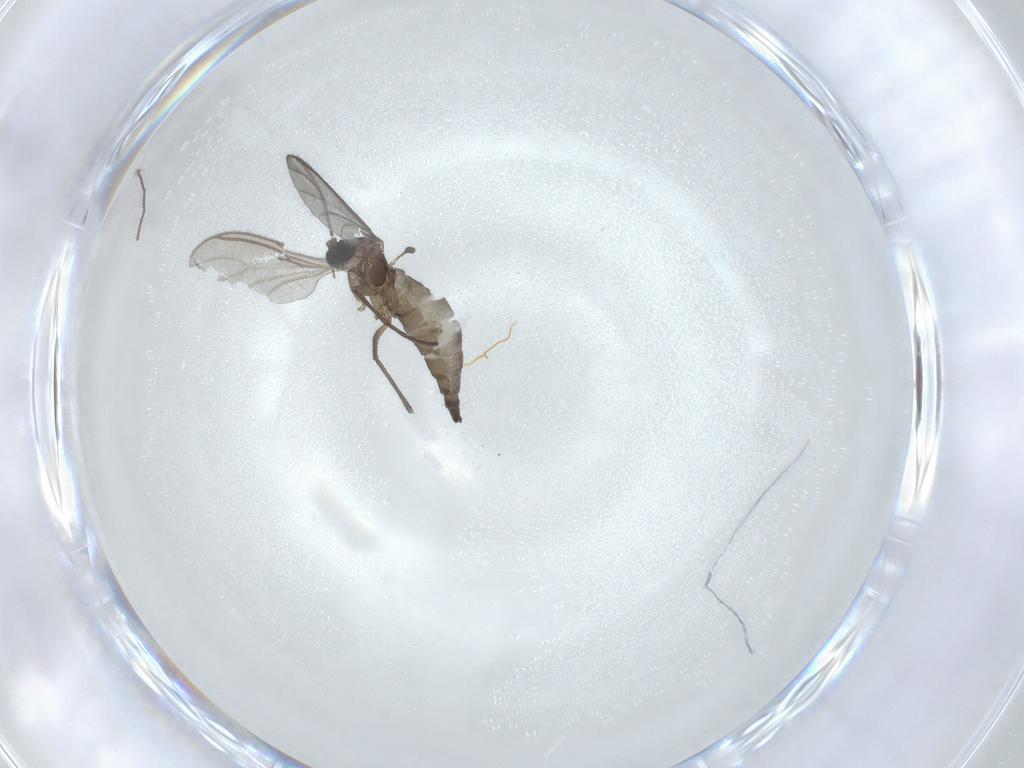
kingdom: Animalia
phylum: Arthropoda
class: Insecta
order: Diptera
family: Sciaridae
